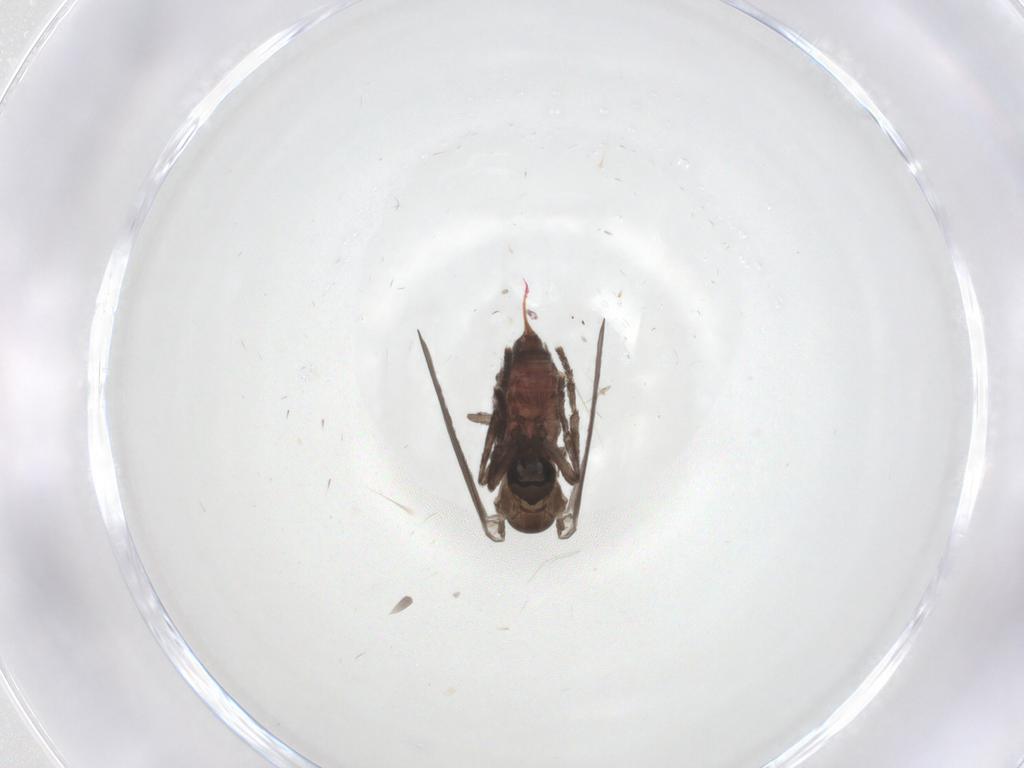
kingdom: Animalia
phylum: Arthropoda
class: Insecta
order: Diptera
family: Psychodidae
